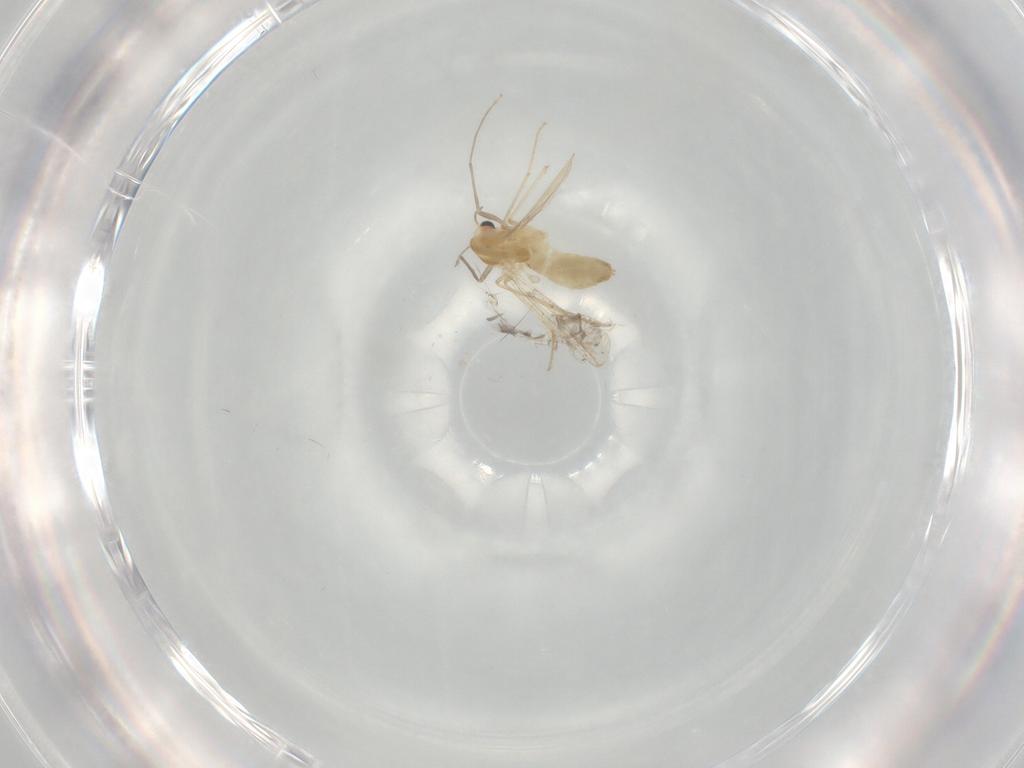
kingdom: Animalia
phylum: Arthropoda
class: Insecta
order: Diptera
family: Chironomidae
